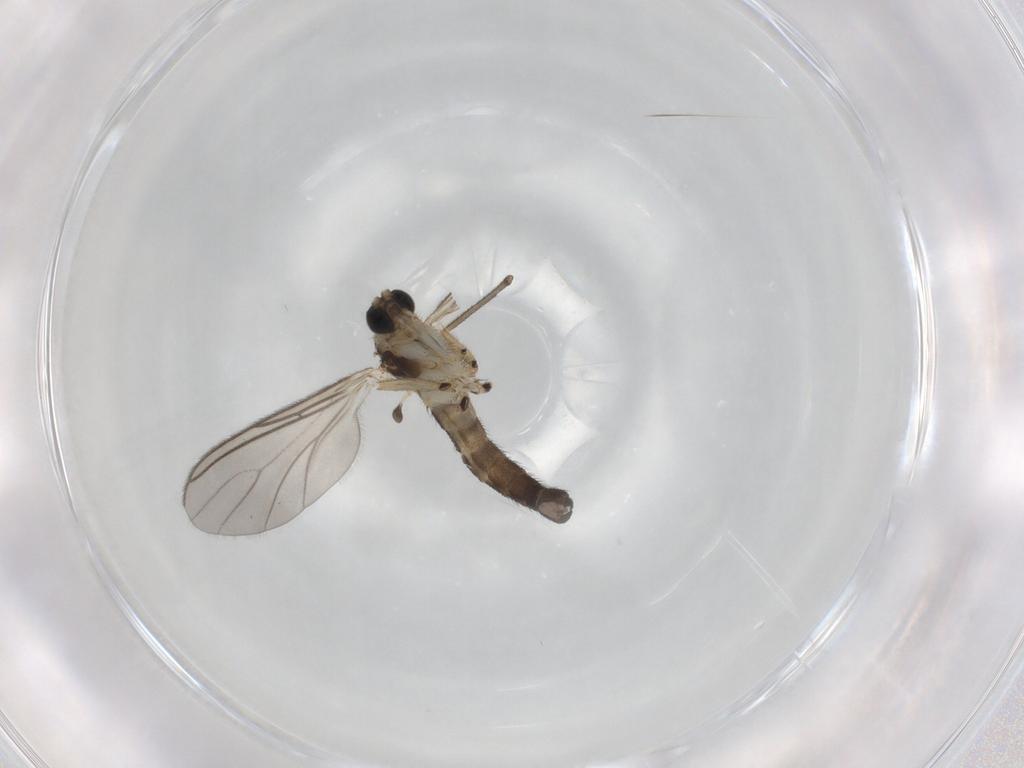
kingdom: Animalia
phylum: Arthropoda
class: Insecta
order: Diptera
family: Sciaridae
